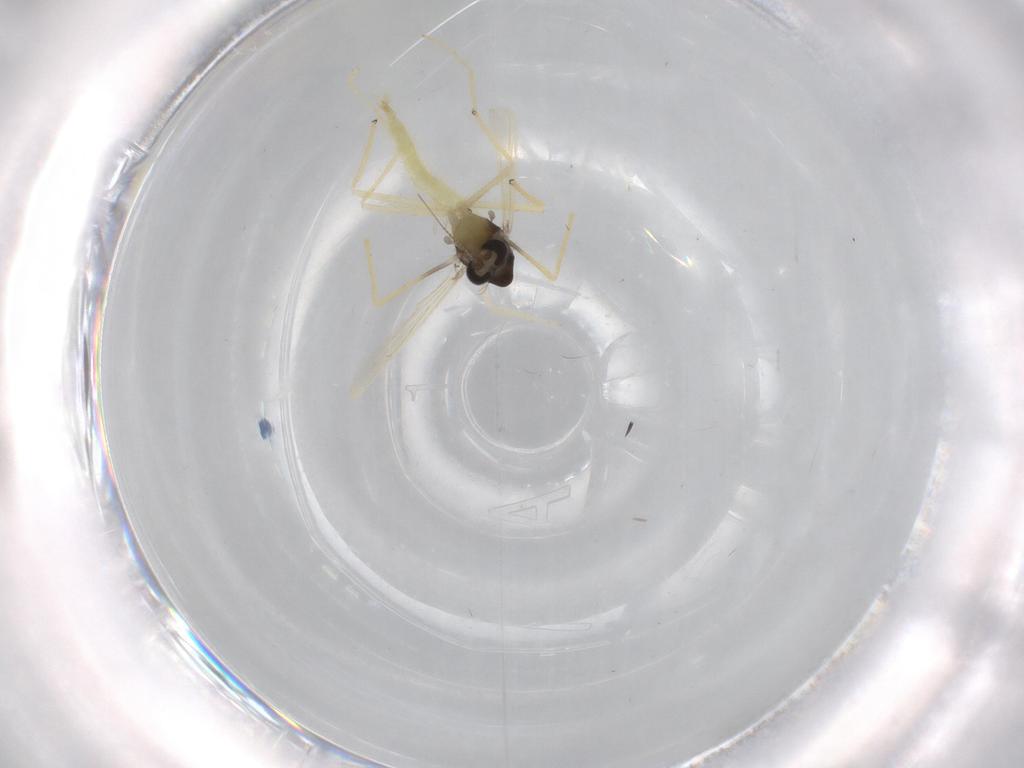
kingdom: Animalia
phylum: Arthropoda
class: Insecta
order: Diptera
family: Chironomidae
